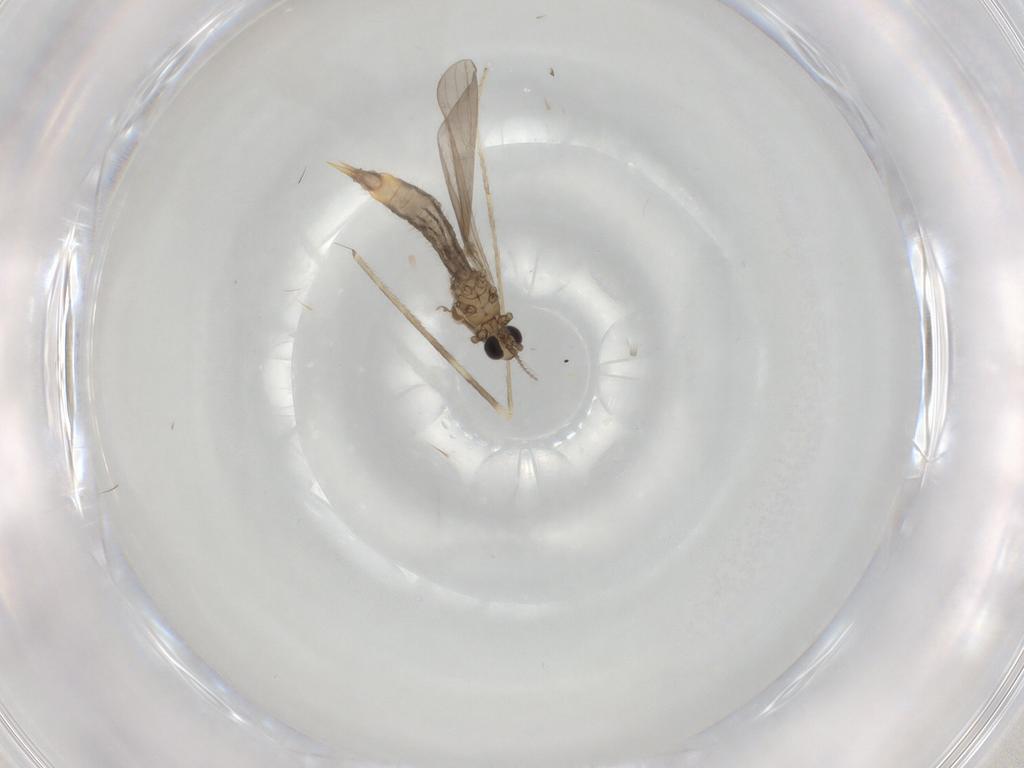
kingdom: Animalia
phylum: Arthropoda
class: Insecta
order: Diptera
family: Limoniidae
